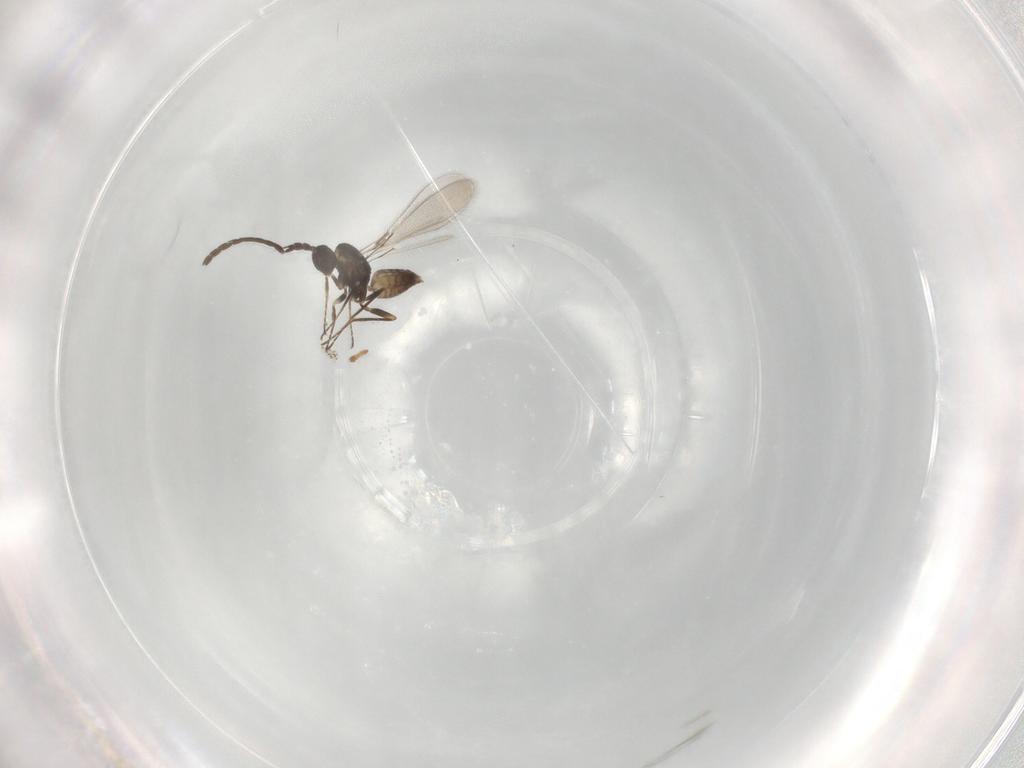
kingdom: Animalia
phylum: Arthropoda
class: Insecta
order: Hymenoptera
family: Mymaridae
